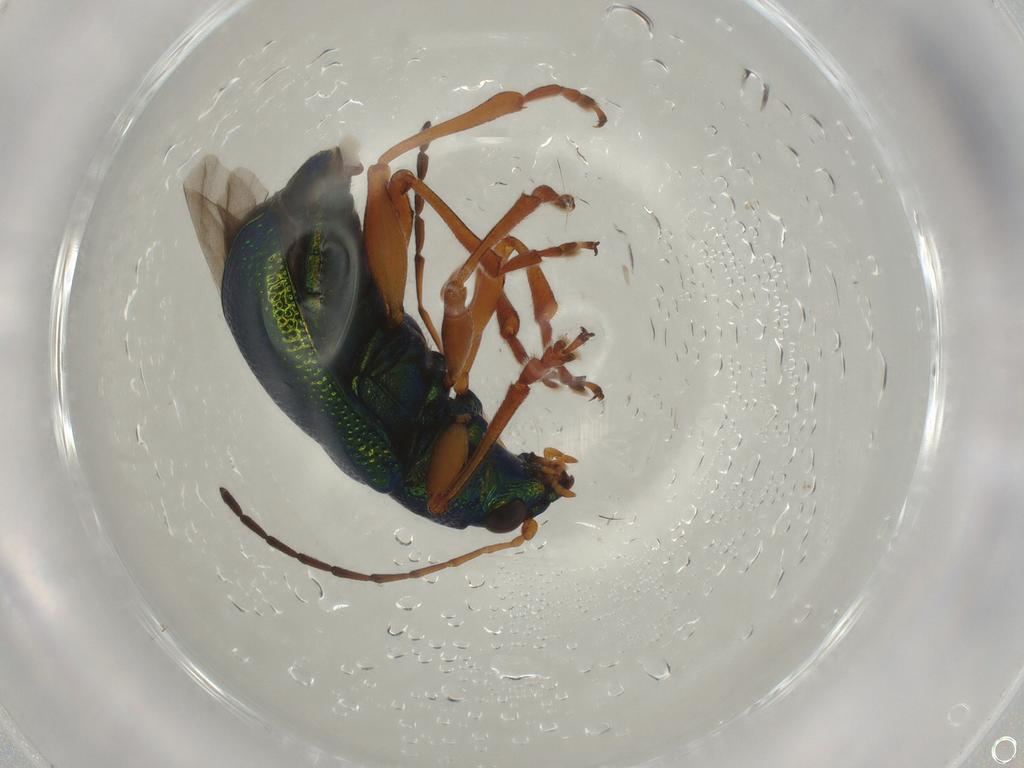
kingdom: Animalia
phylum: Arthropoda
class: Insecta
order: Coleoptera
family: Chrysomelidae
